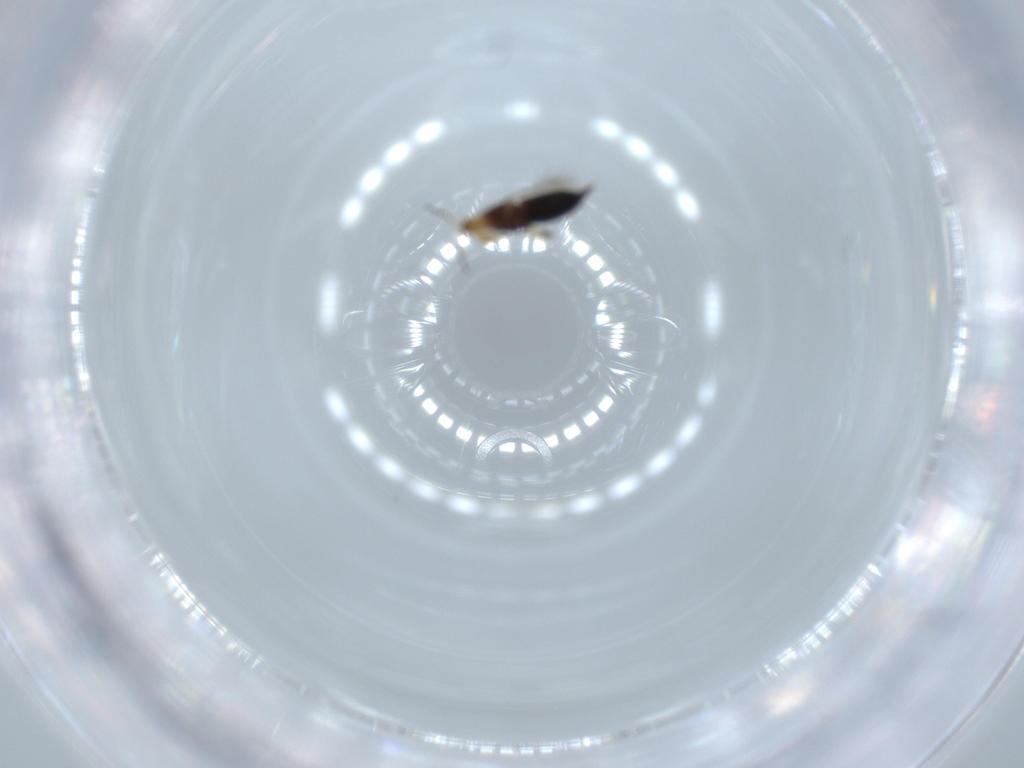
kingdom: Animalia
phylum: Arthropoda
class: Insecta
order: Thysanoptera
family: Phlaeothripidae
